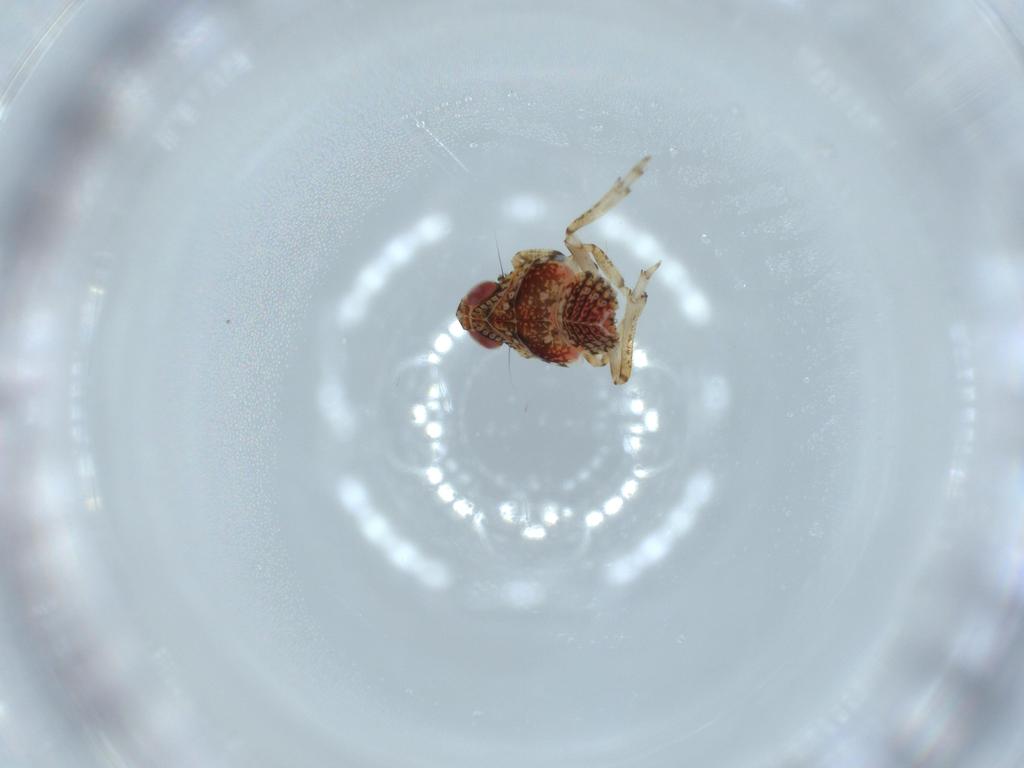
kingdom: Animalia
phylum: Arthropoda
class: Insecta
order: Hemiptera
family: Issidae
